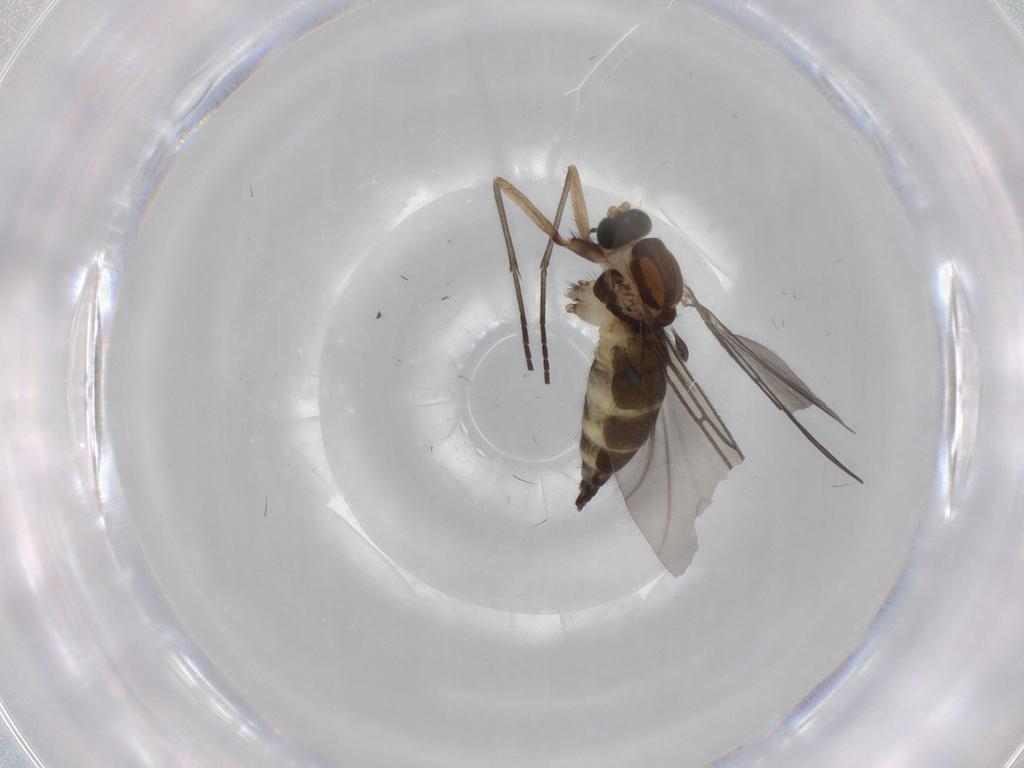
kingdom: Animalia
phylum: Arthropoda
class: Insecta
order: Diptera
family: Sciaridae
